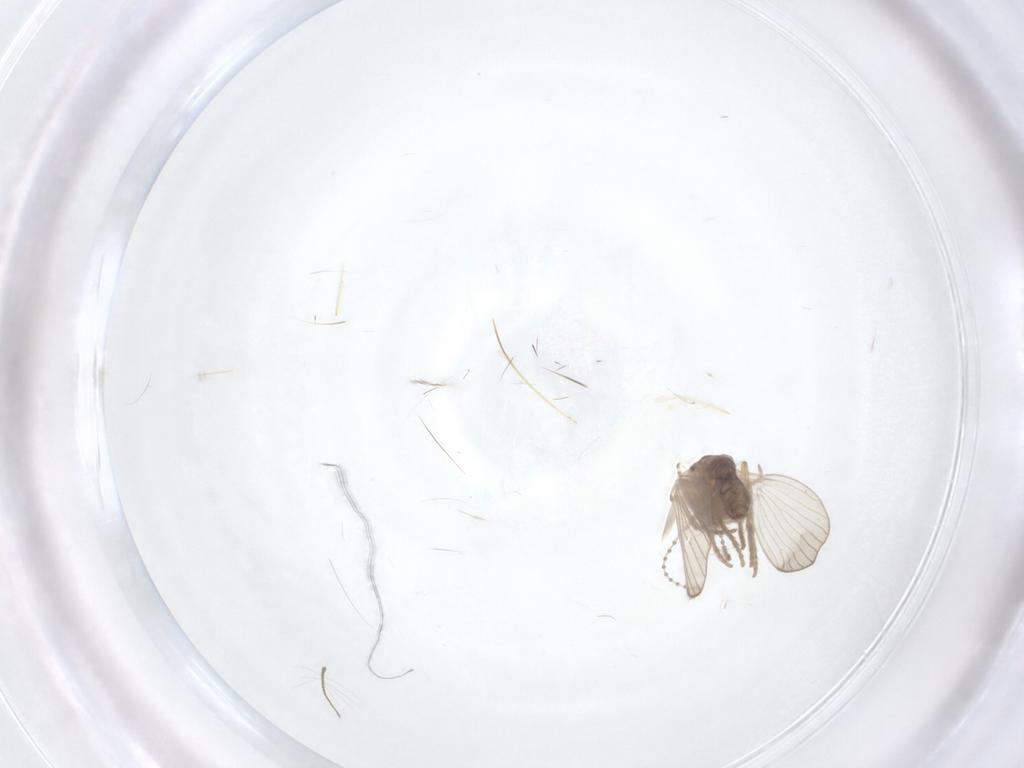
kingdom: Animalia
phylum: Arthropoda
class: Insecta
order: Diptera
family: Psychodidae
